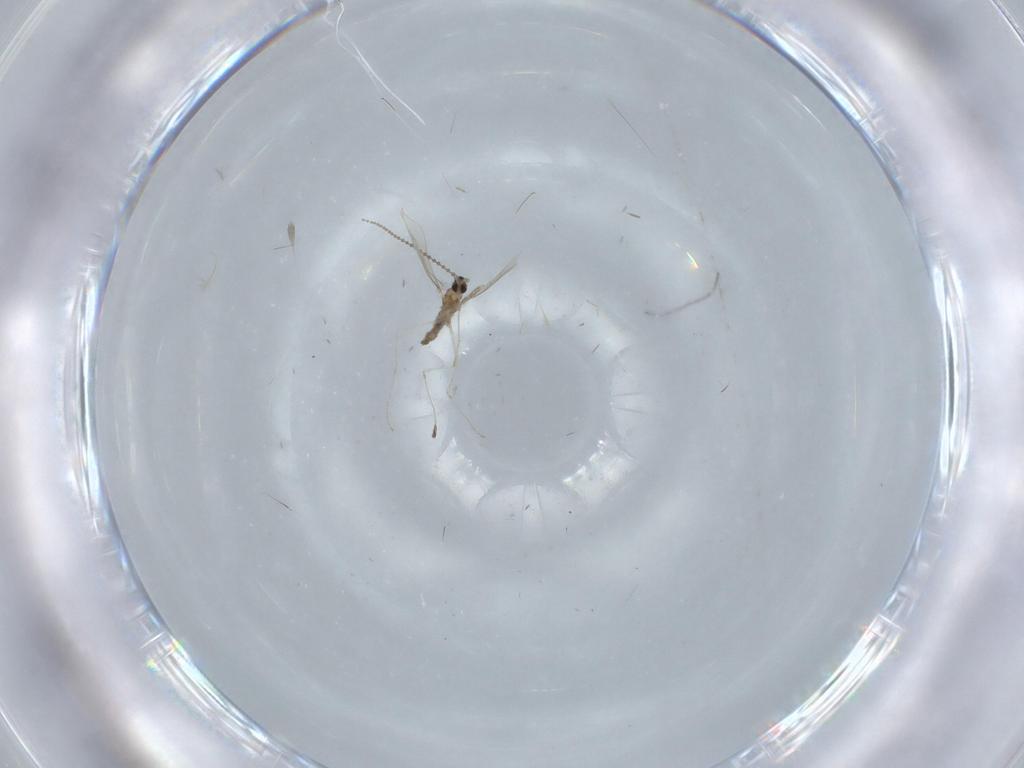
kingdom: Animalia
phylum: Arthropoda
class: Insecta
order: Diptera
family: Cecidomyiidae
